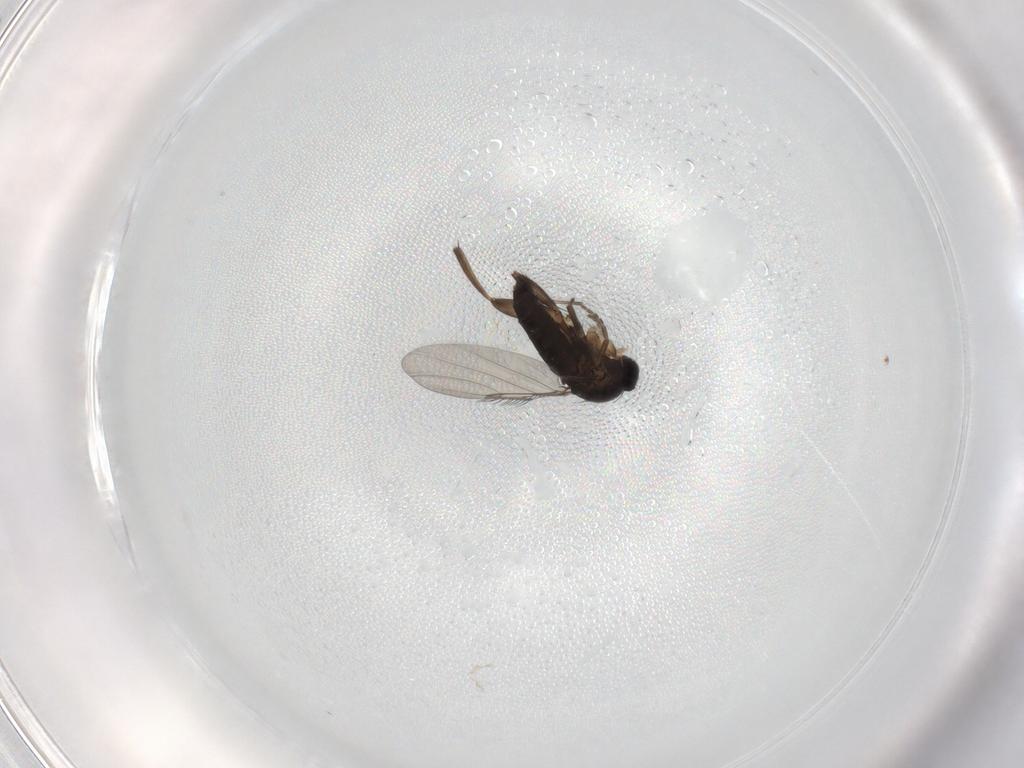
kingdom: Animalia
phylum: Arthropoda
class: Insecta
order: Diptera
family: Phoridae
